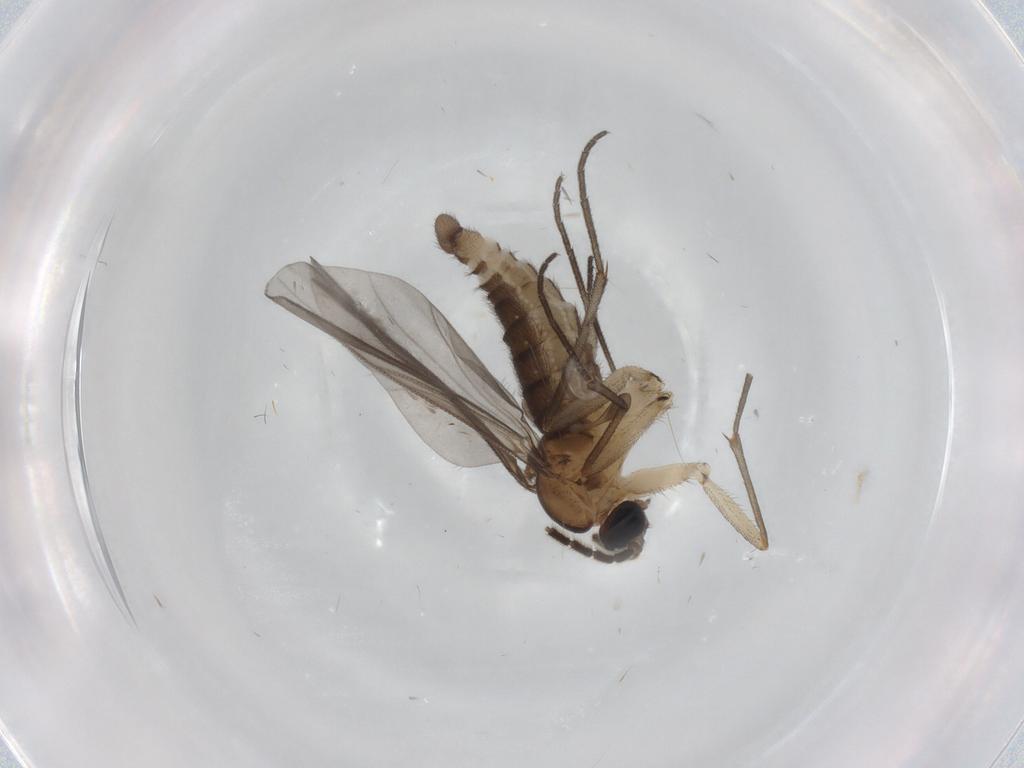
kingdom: Animalia
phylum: Arthropoda
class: Insecta
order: Diptera
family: Sciaridae
